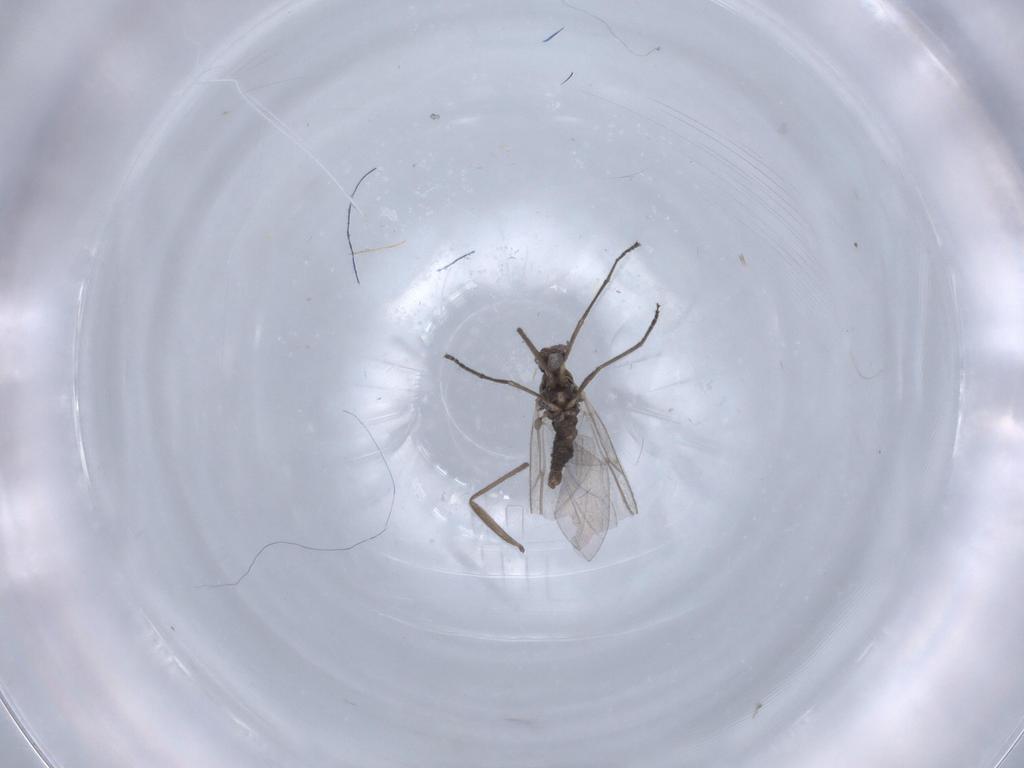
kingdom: Animalia
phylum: Arthropoda
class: Insecta
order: Diptera
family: Cecidomyiidae
